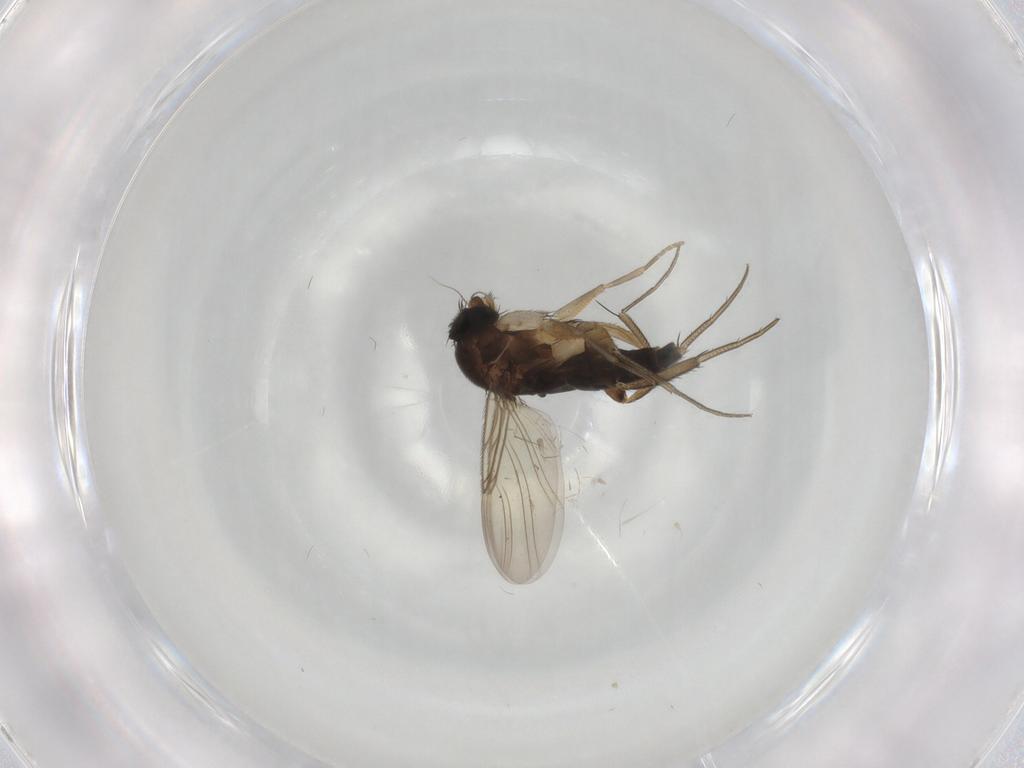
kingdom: Animalia
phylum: Arthropoda
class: Insecta
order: Diptera
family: Phoridae
